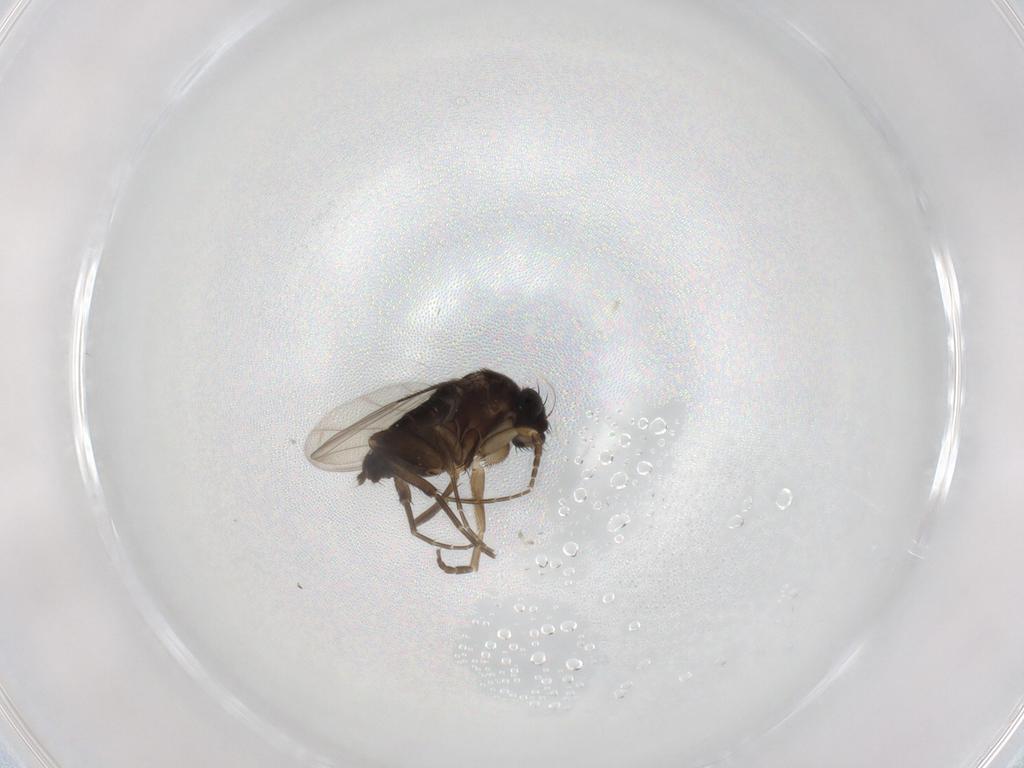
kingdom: Animalia
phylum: Arthropoda
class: Insecta
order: Diptera
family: Phoridae
